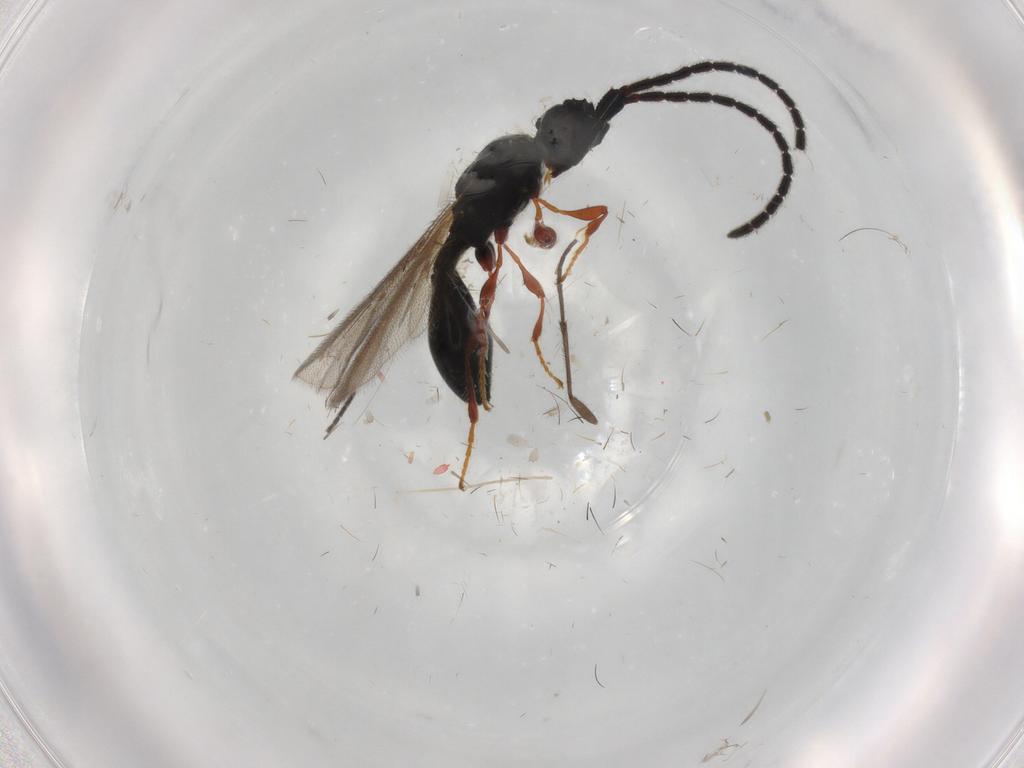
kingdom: Animalia
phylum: Arthropoda
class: Insecta
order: Hymenoptera
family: Diapriidae
